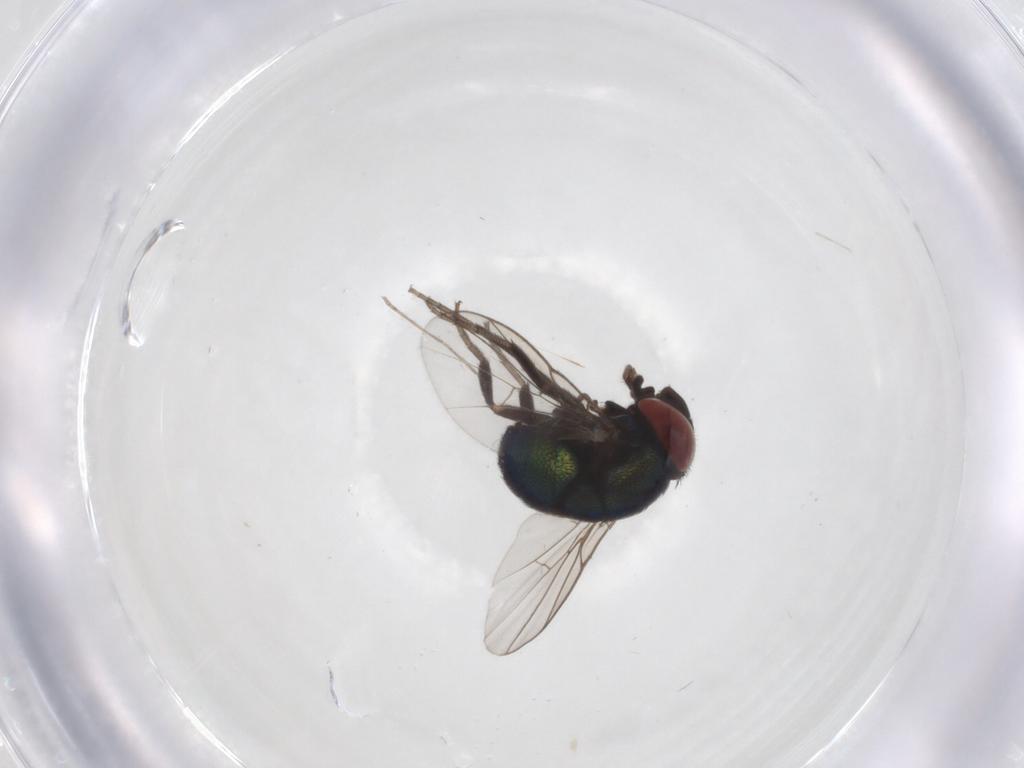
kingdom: Animalia
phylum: Arthropoda
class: Insecta
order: Diptera
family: Cryptochetidae
